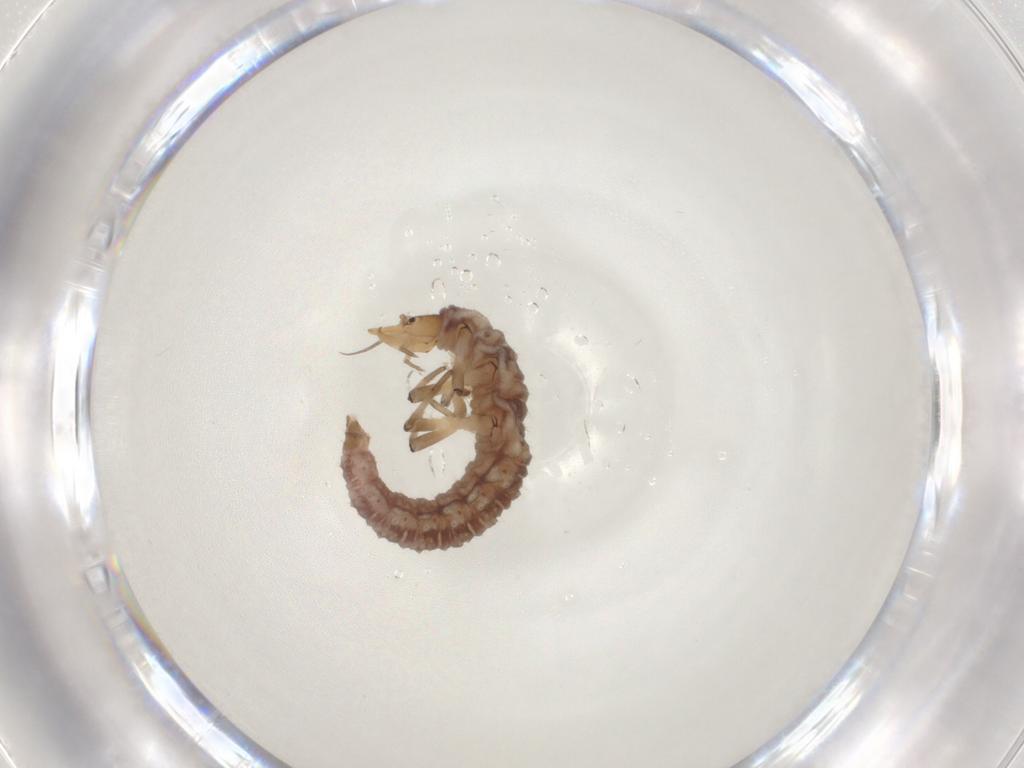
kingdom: Animalia
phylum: Arthropoda
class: Insecta
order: Neuroptera
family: Hemerobiidae
